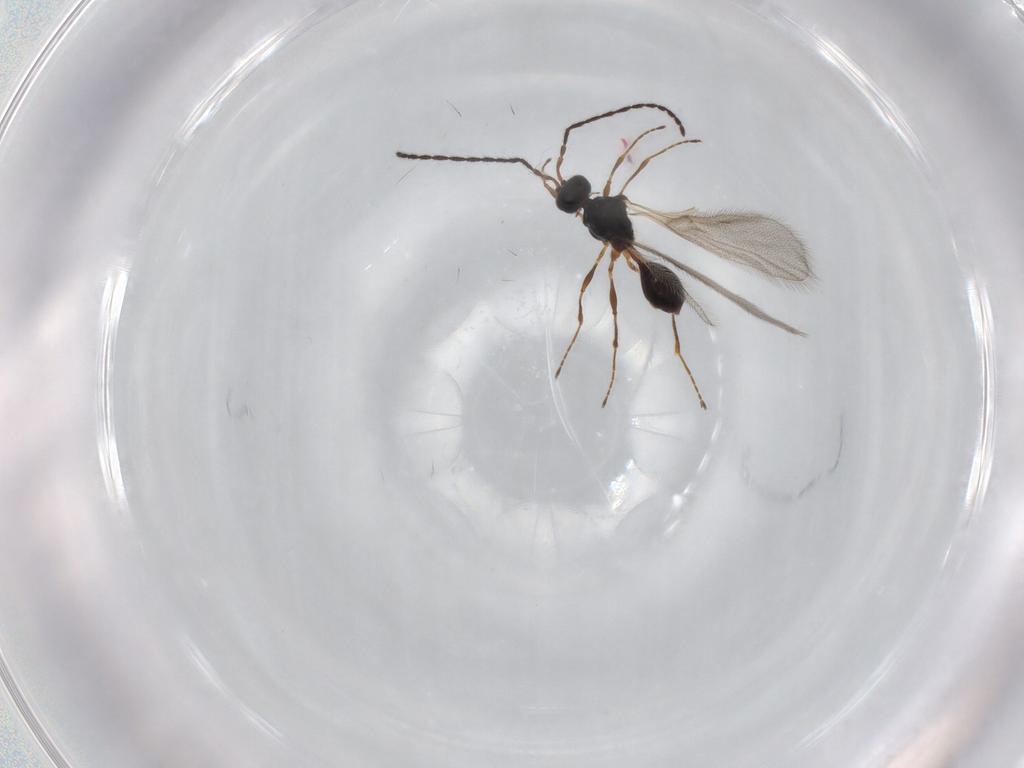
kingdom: Animalia
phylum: Arthropoda
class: Insecta
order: Hymenoptera
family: Diapriidae
